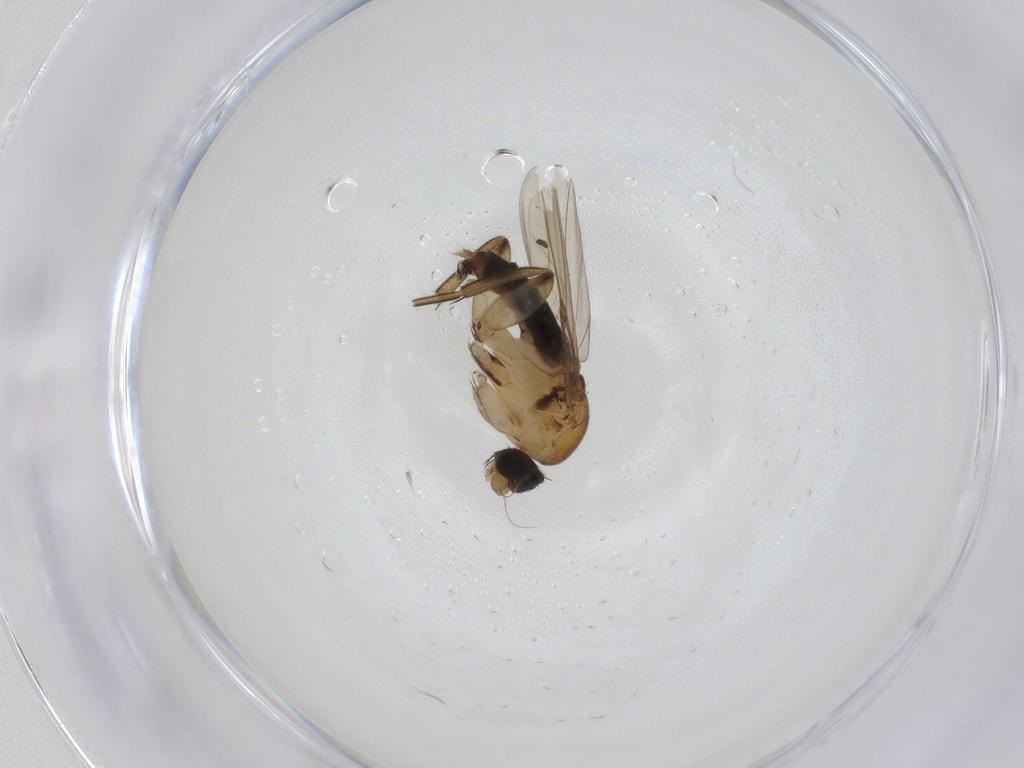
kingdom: Animalia
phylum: Arthropoda
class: Insecta
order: Diptera
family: Phoridae
